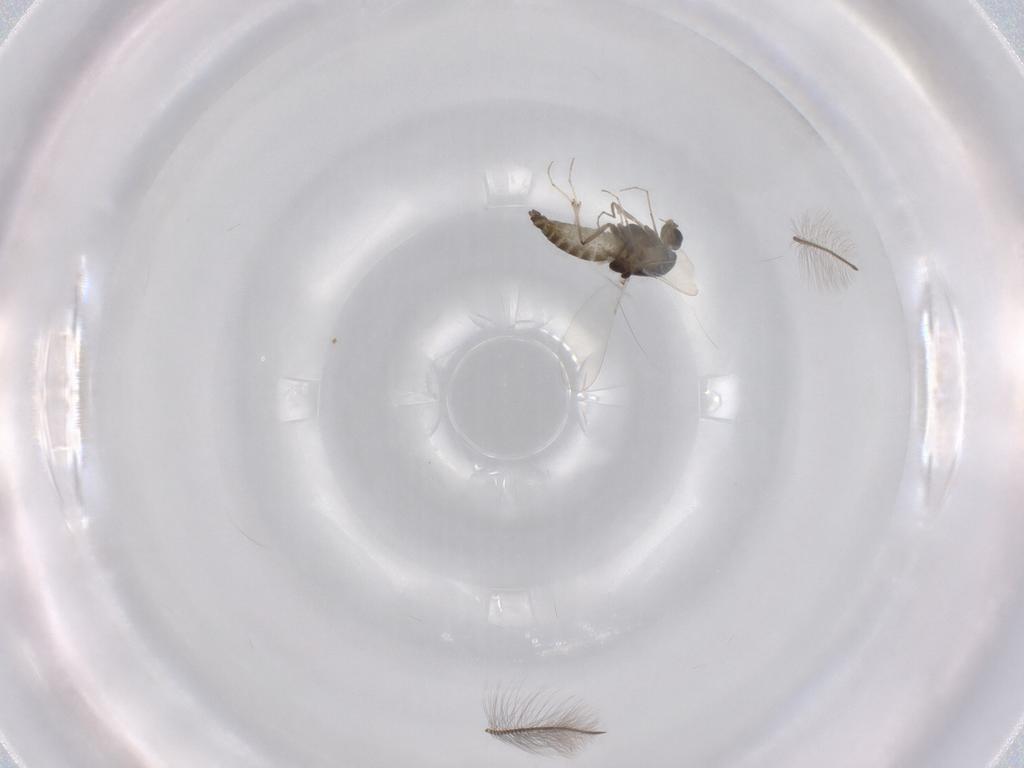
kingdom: Animalia
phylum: Arthropoda
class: Insecta
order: Diptera
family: Chironomidae
